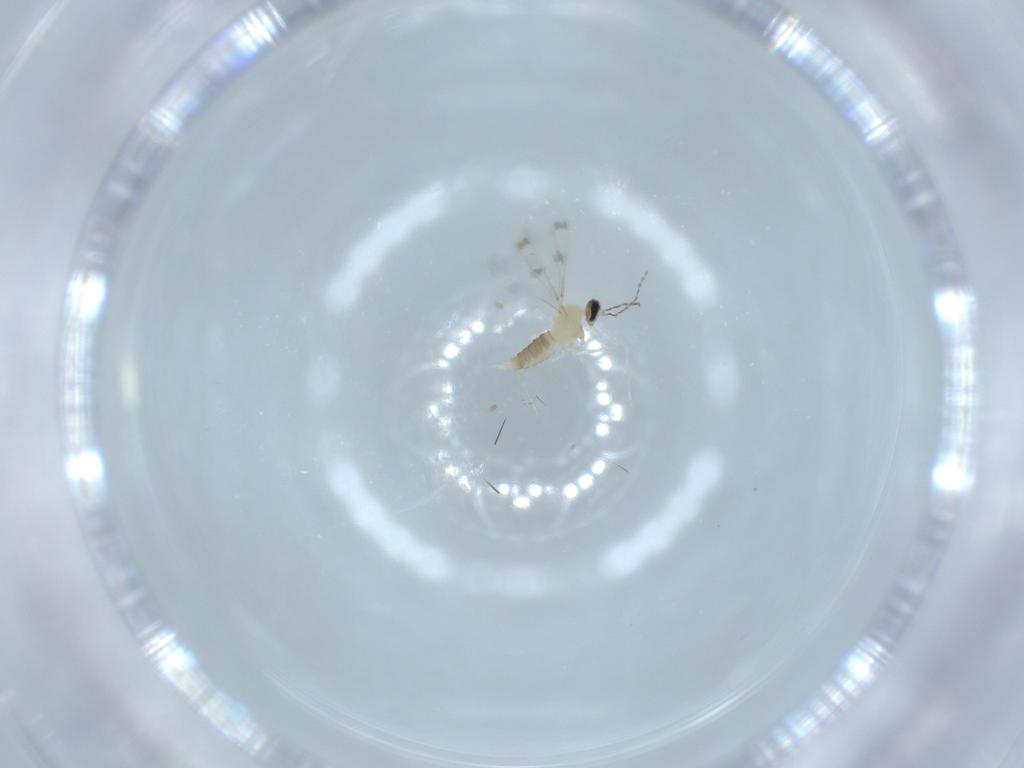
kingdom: Animalia
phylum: Arthropoda
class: Insecta
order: Diptera
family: Cecidomyiidae
